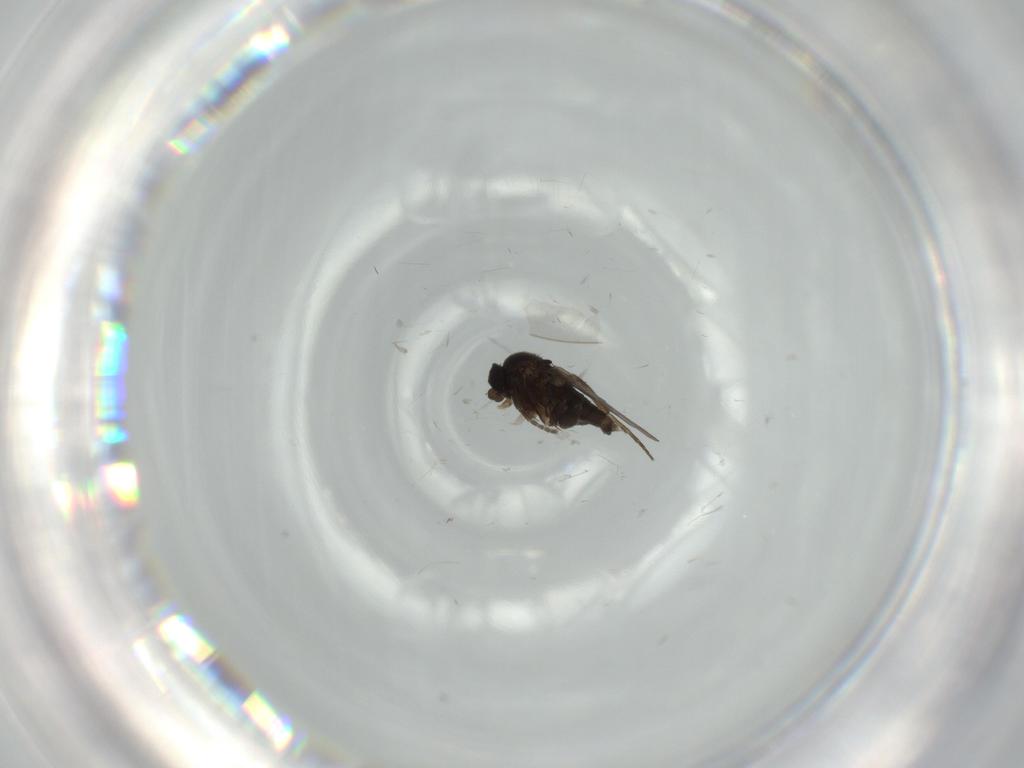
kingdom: Animalia
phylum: Arthropoda
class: Insecta
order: Diptera
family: Phoridae
